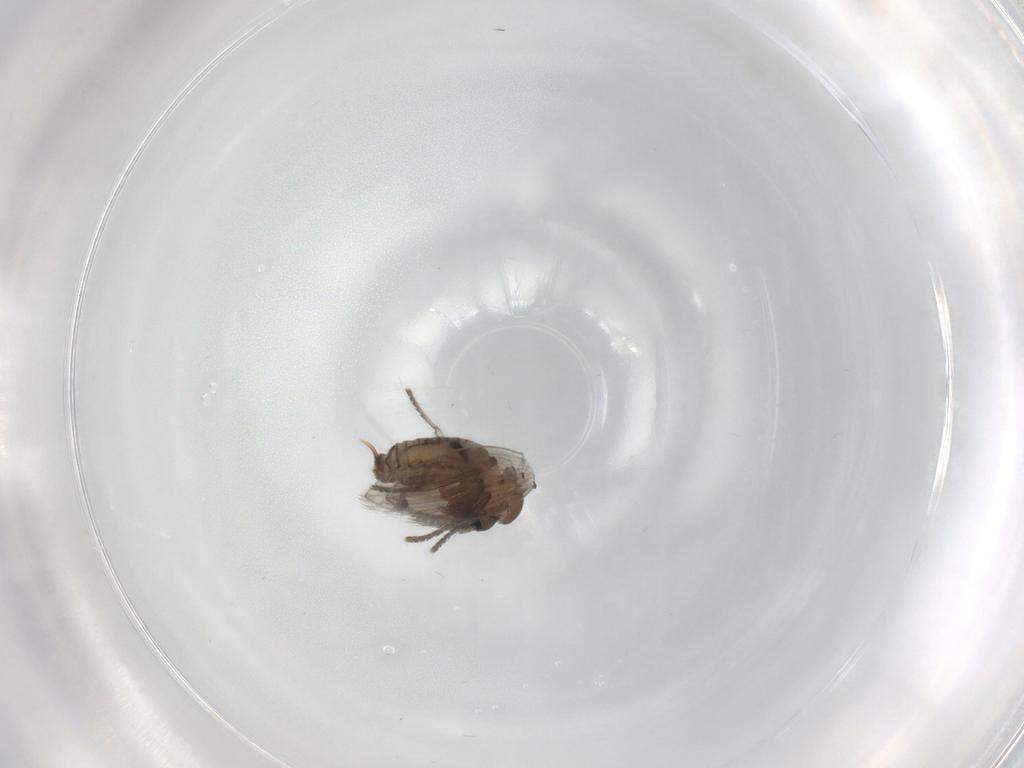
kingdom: Animalia
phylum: Arthropoda
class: Insecta
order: Diptera
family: Psychodidae
